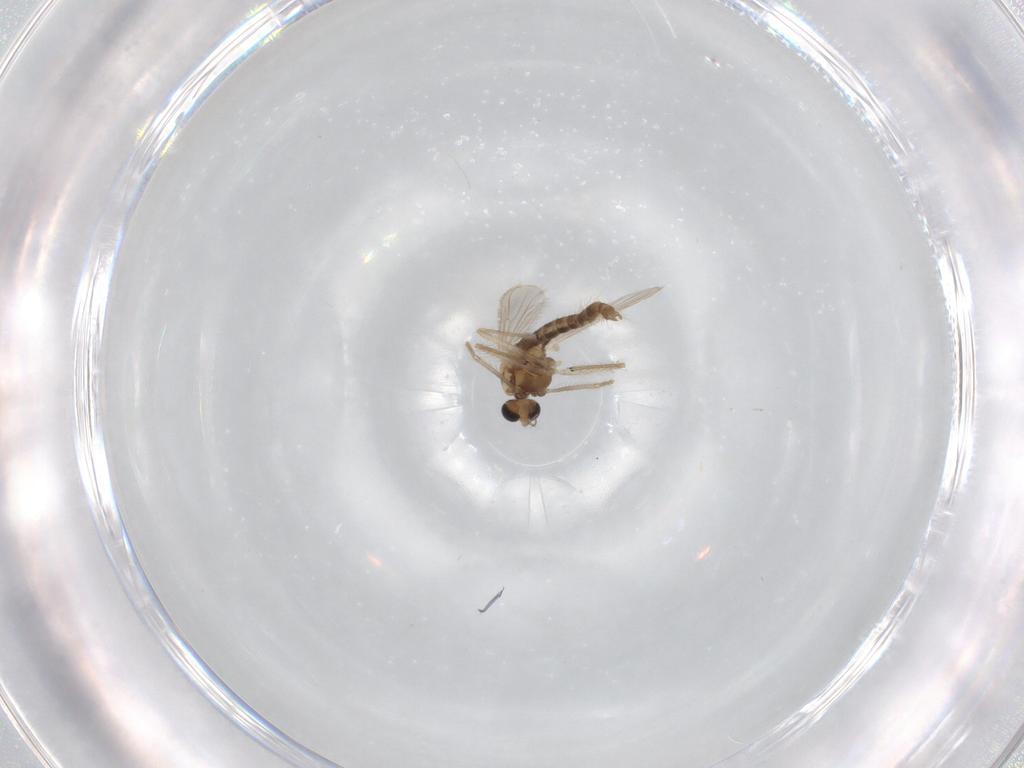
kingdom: Animalia
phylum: Arthropoda
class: Insecta
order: Diptera
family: Chironomidae
